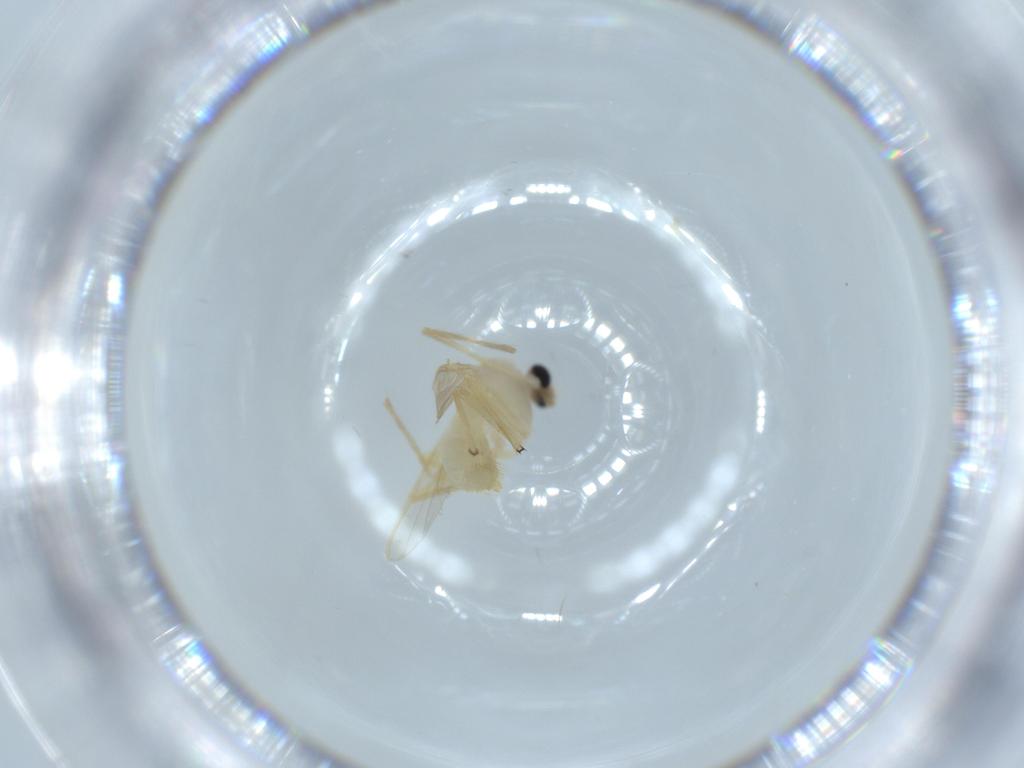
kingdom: Animalia
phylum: Arthropoda
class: Insecta
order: Diptera
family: Chironomidae
